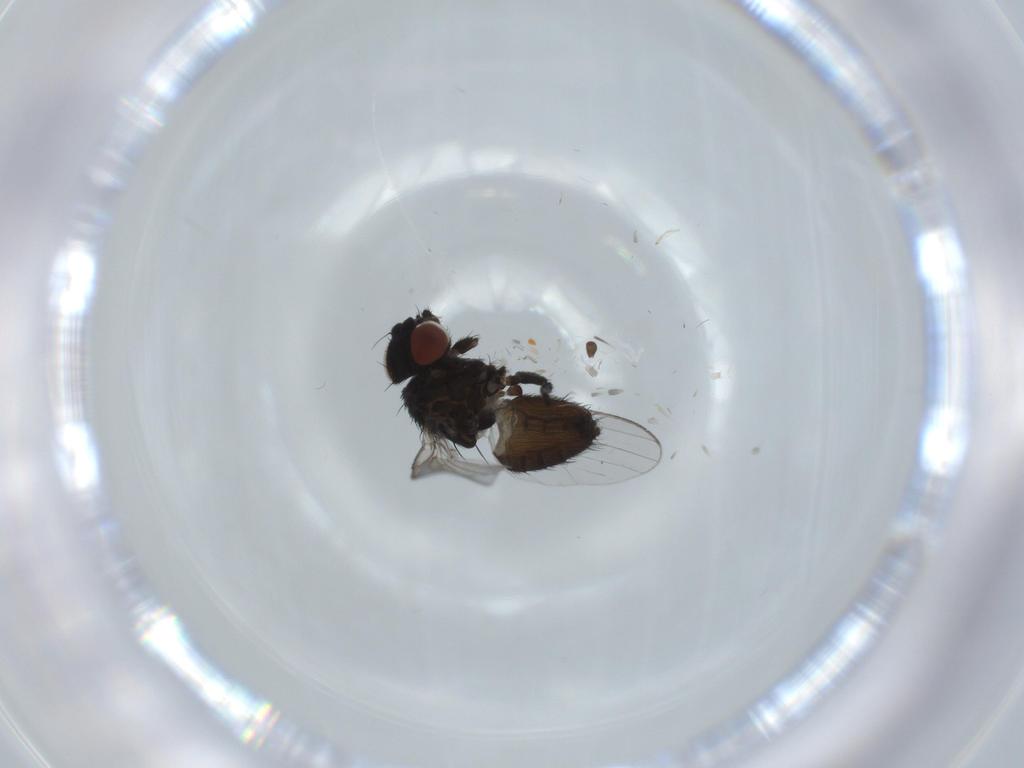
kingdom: Animalia
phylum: Arthropoda
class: Insecta
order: Diptera
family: Milichiidae
